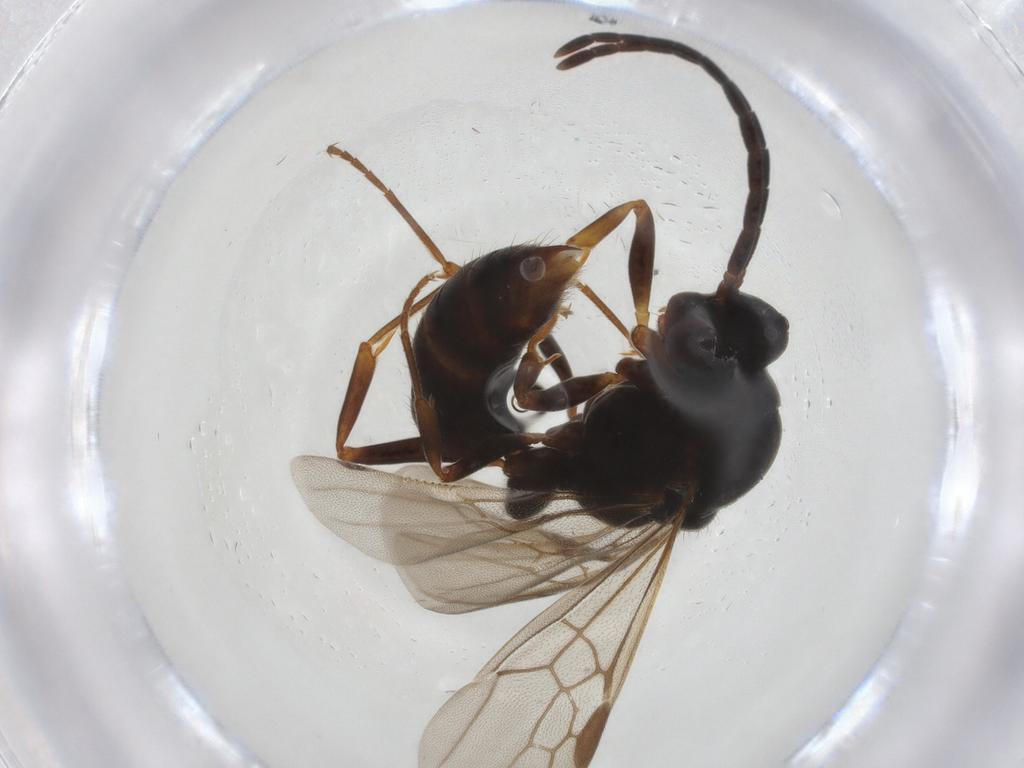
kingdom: Animalia
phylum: Arthropoda
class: Insecta
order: Hymenoptera
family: Formicidae
